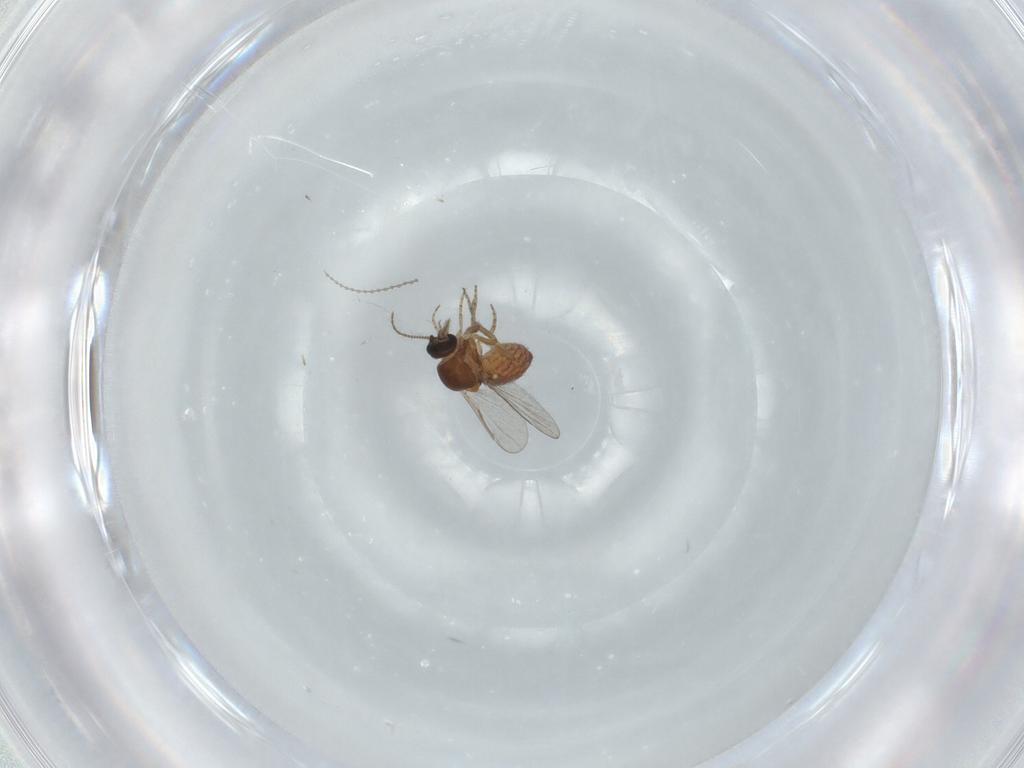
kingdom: Animalia
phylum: Arthropoda
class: Insecta
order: Diptera
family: Cecidomyiidae
